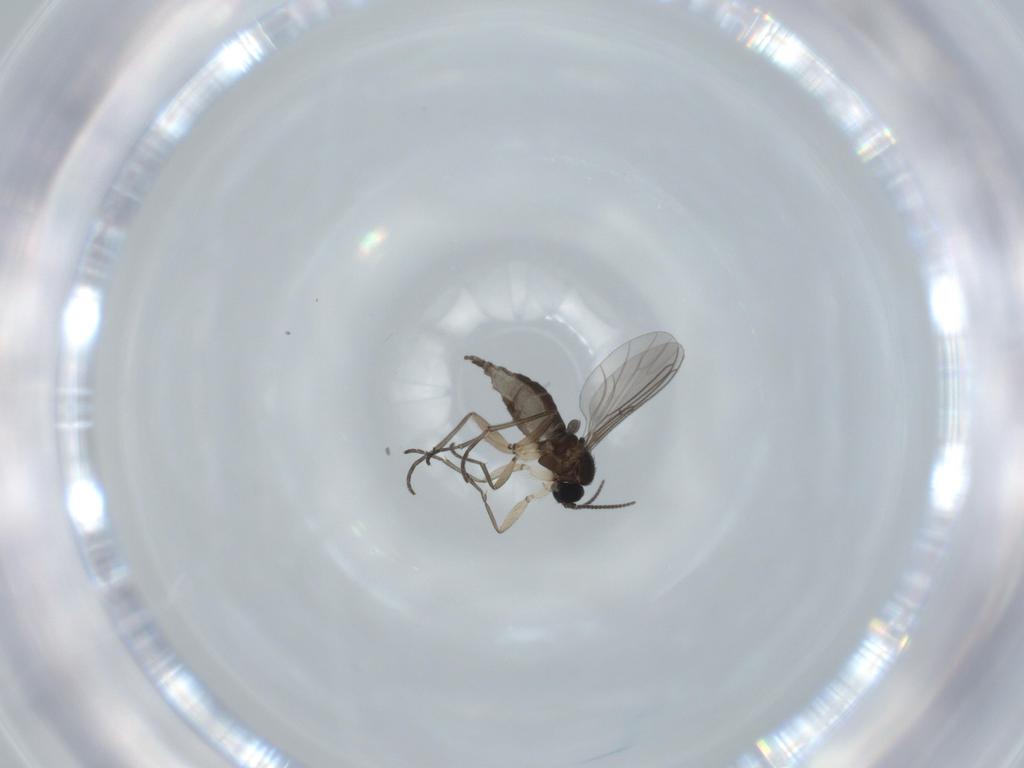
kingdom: Animalia
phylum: Arthropoda
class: Insecta
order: Diptera
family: Sciaridae
